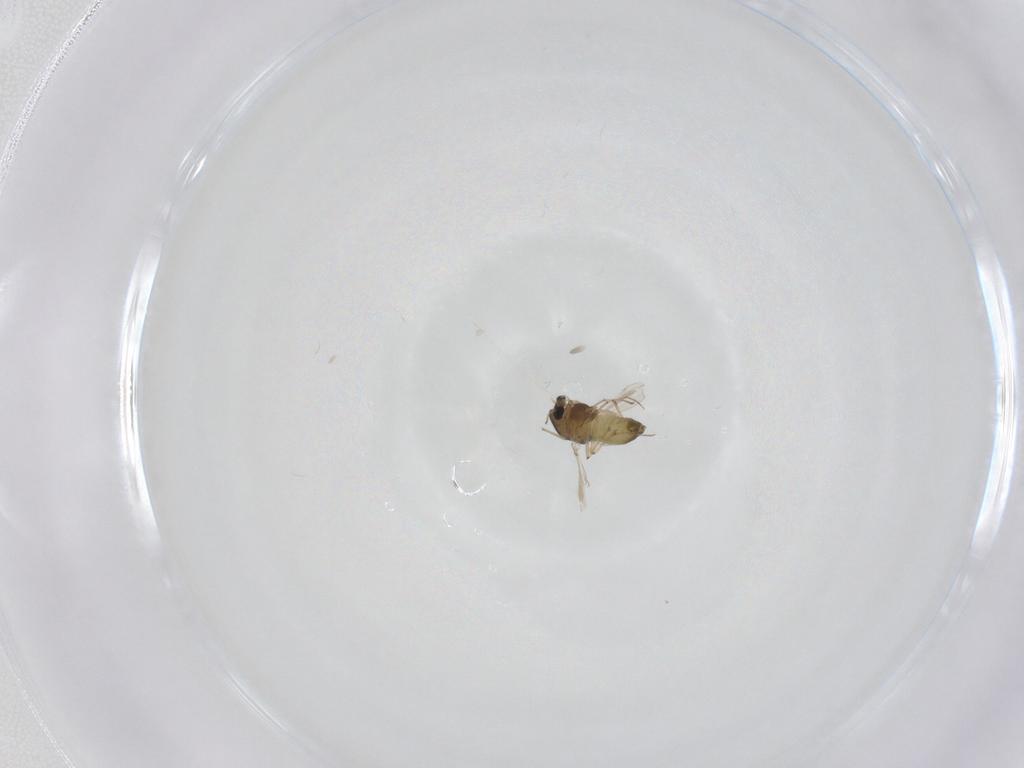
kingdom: Animalia
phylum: Arthropoda
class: Insecta
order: Diptera
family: Chironomidae
